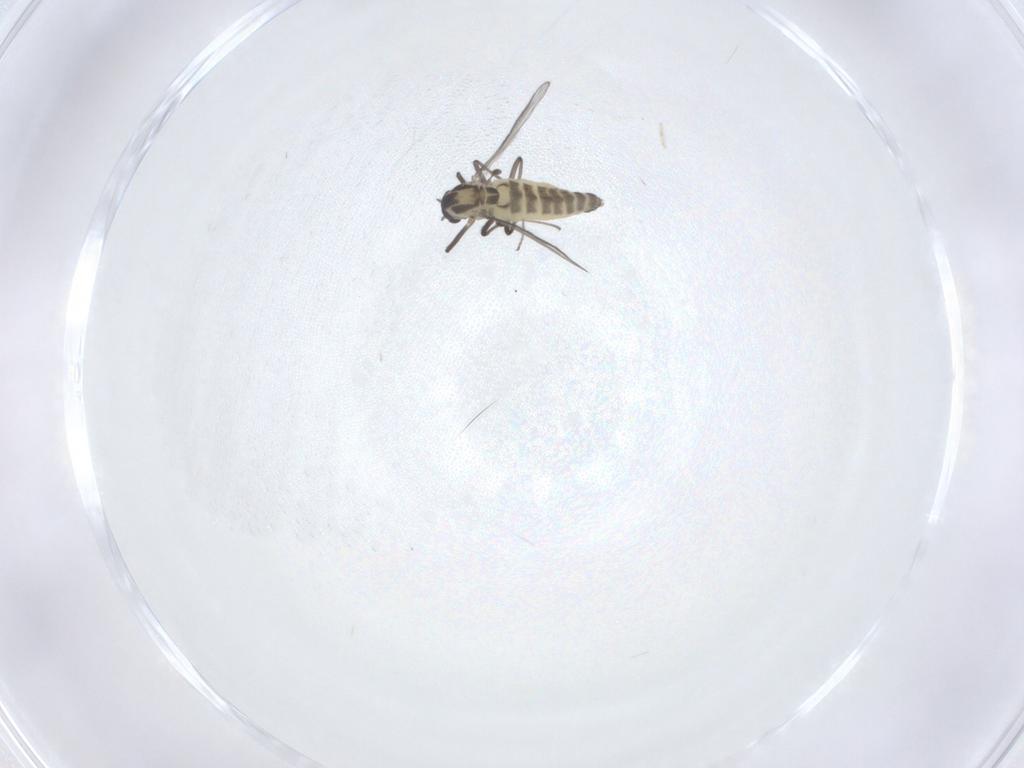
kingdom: Animalia
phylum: Arthropoda
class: Insecta
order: Diptera
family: Chironomidae
